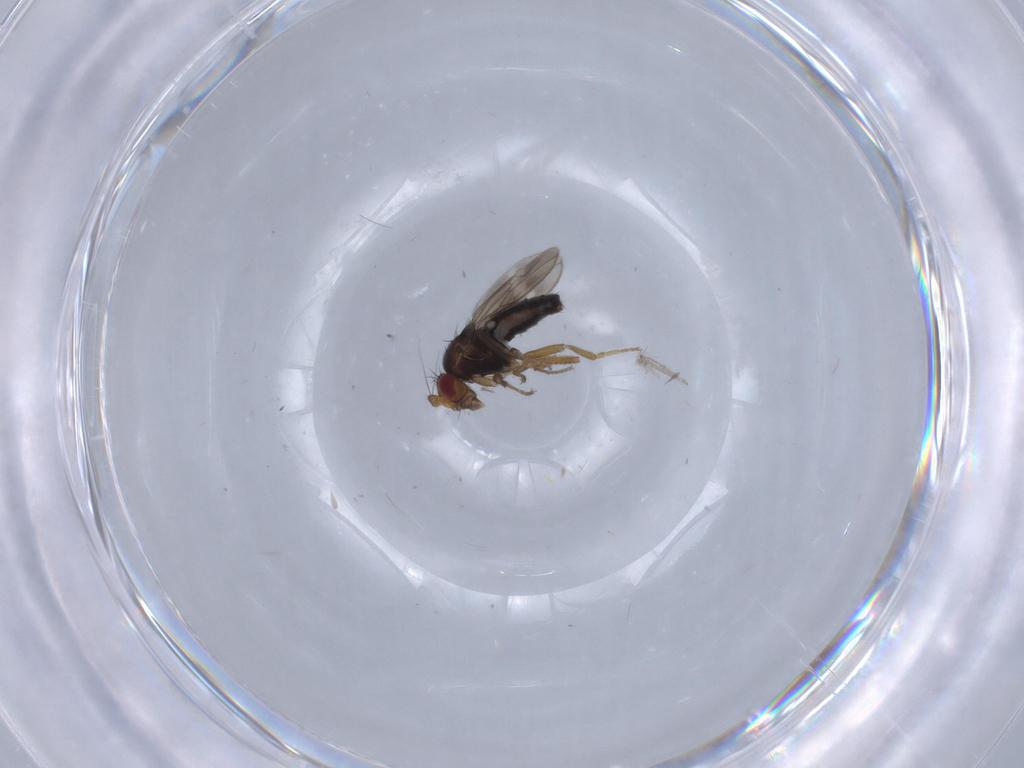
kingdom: Animalia
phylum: Arthropoda
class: Insecta
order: Diptera
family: Sphaeroceridae
